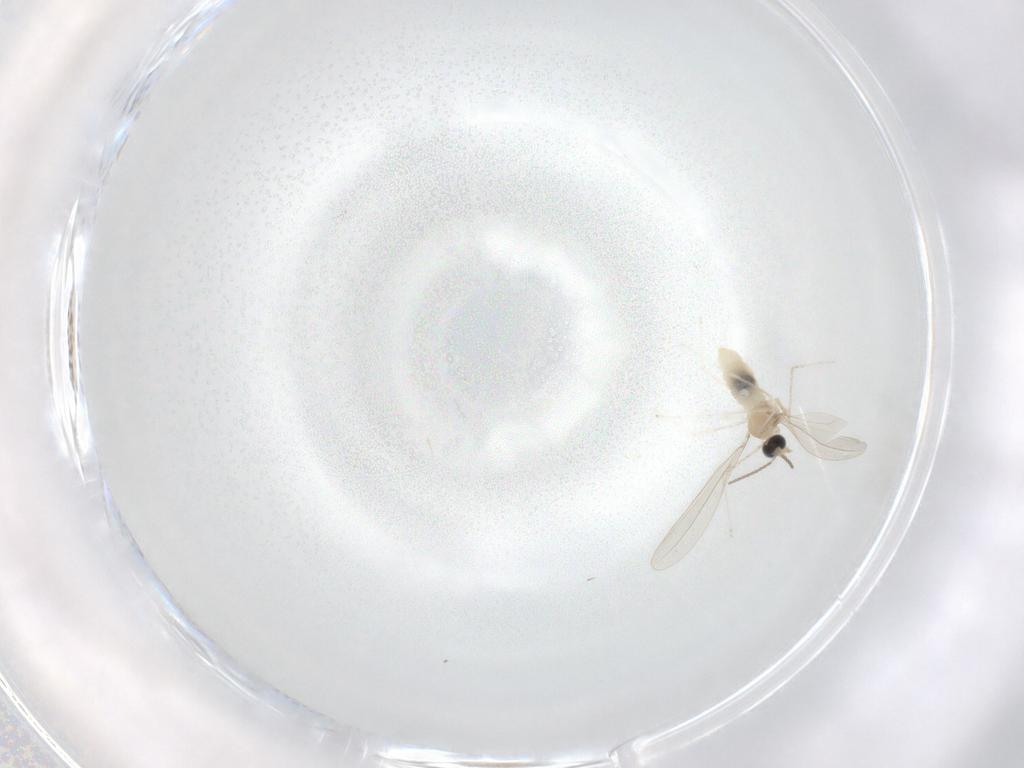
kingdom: Animalia
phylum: Arthropoda
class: Insecta
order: Diptera
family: Cecidomyiidae
